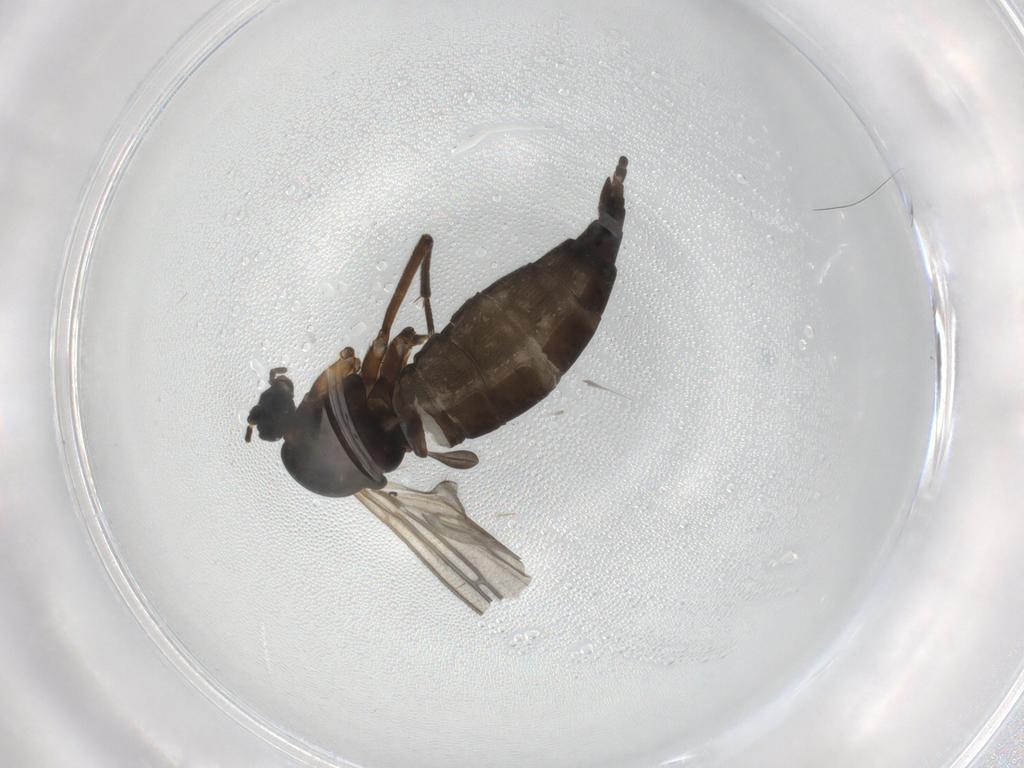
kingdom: Animalia
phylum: Arthropoda
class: Insecta
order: Diptera
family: Sciaridae
